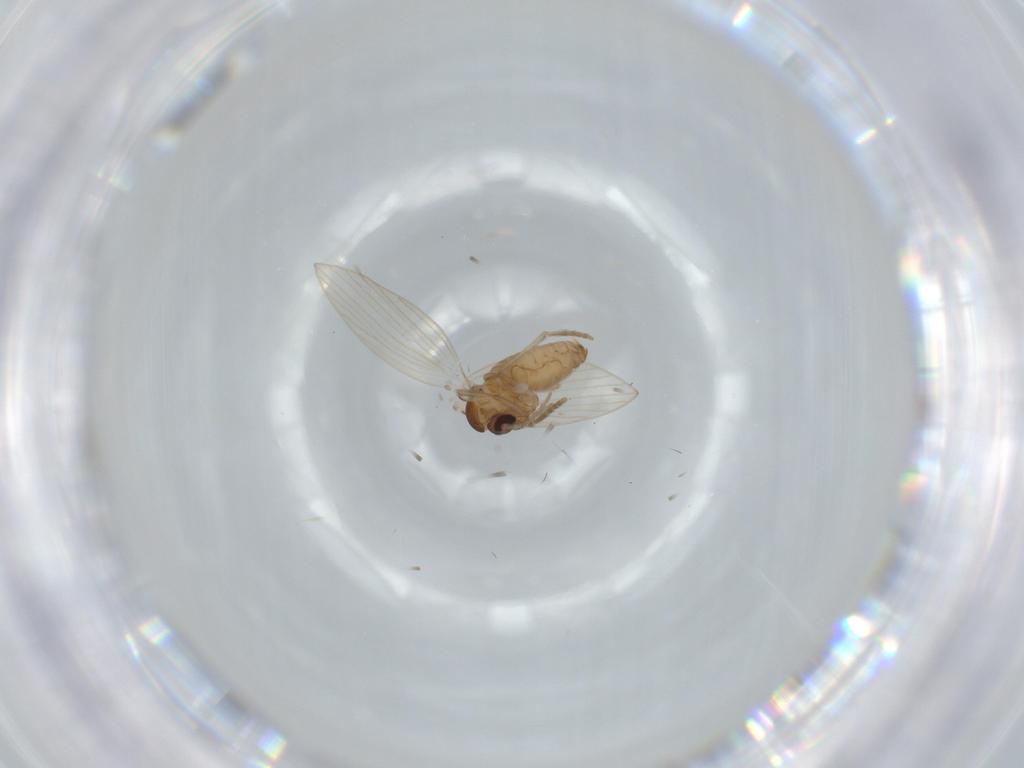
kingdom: Animalia
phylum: Arthropoda
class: Insecta
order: Diptera
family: Psychodidae
